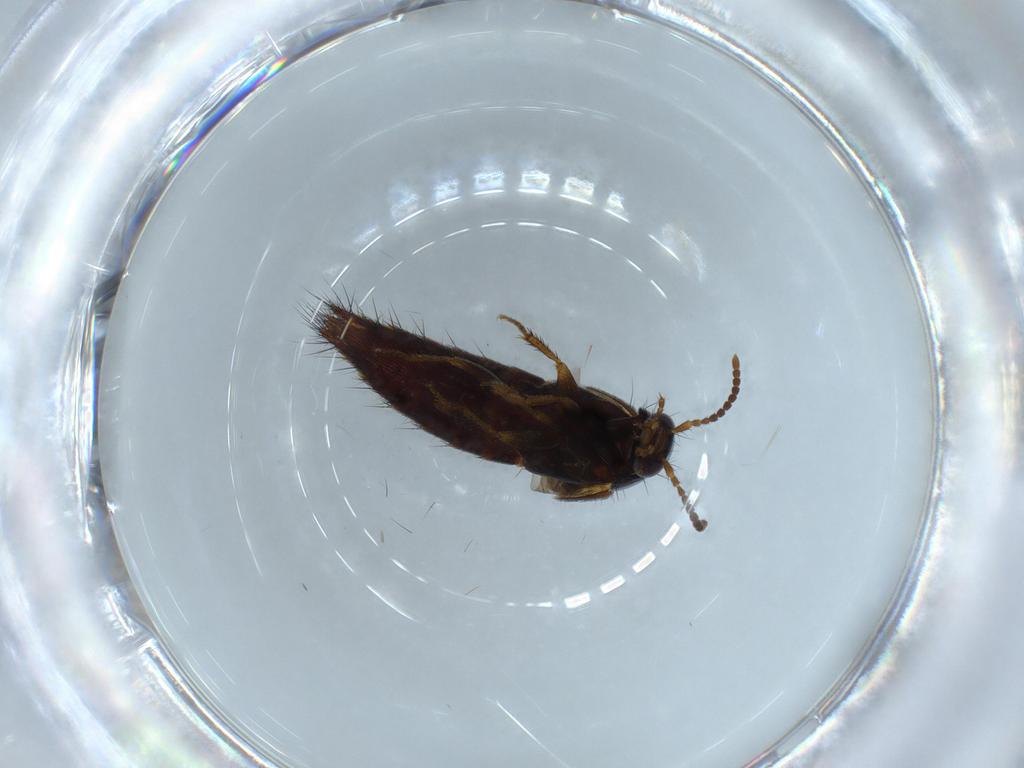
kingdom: Animalia
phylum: Arthropoda
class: Insecta
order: Coleoptera
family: Staphylinidae
